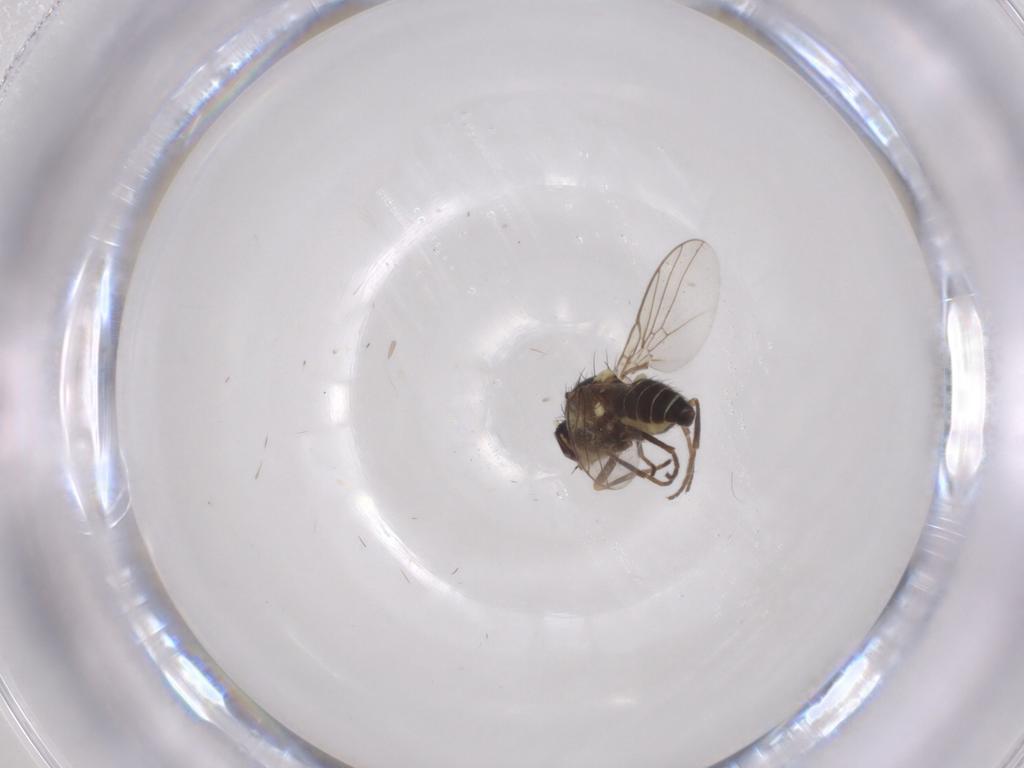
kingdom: Animalia
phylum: Arthropoda
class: Insecta
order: Diptera
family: Agromyzidae
